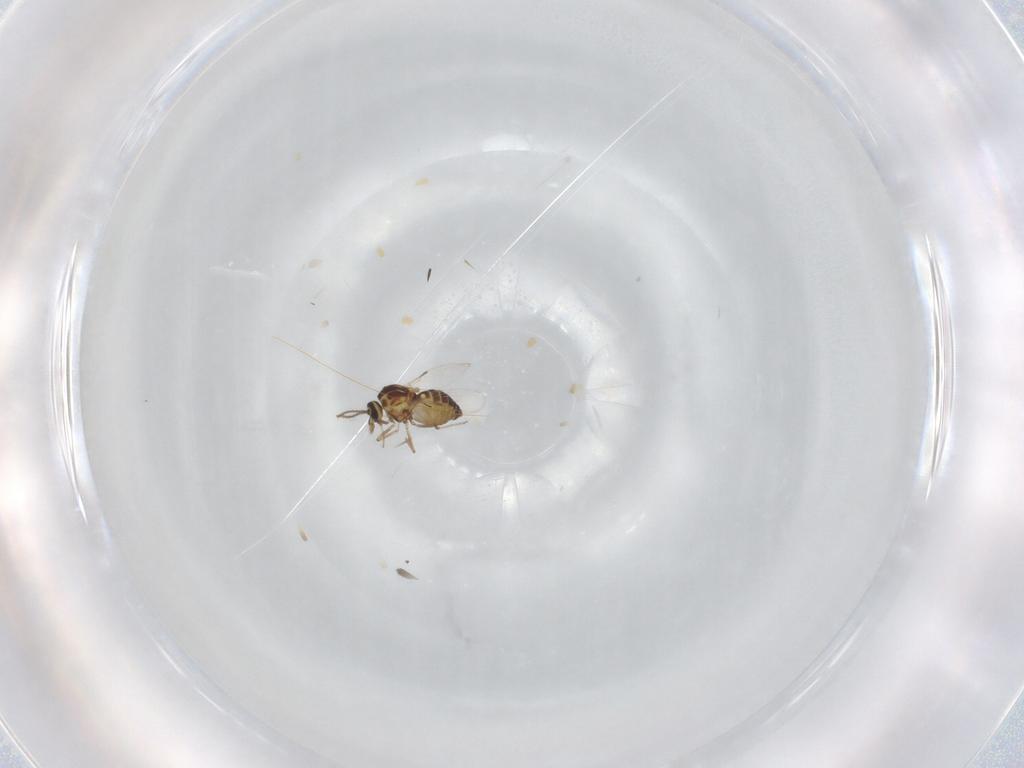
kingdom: Animalia
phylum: Arthropoda
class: Insecta
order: Diptera
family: Ceratopogonidae
